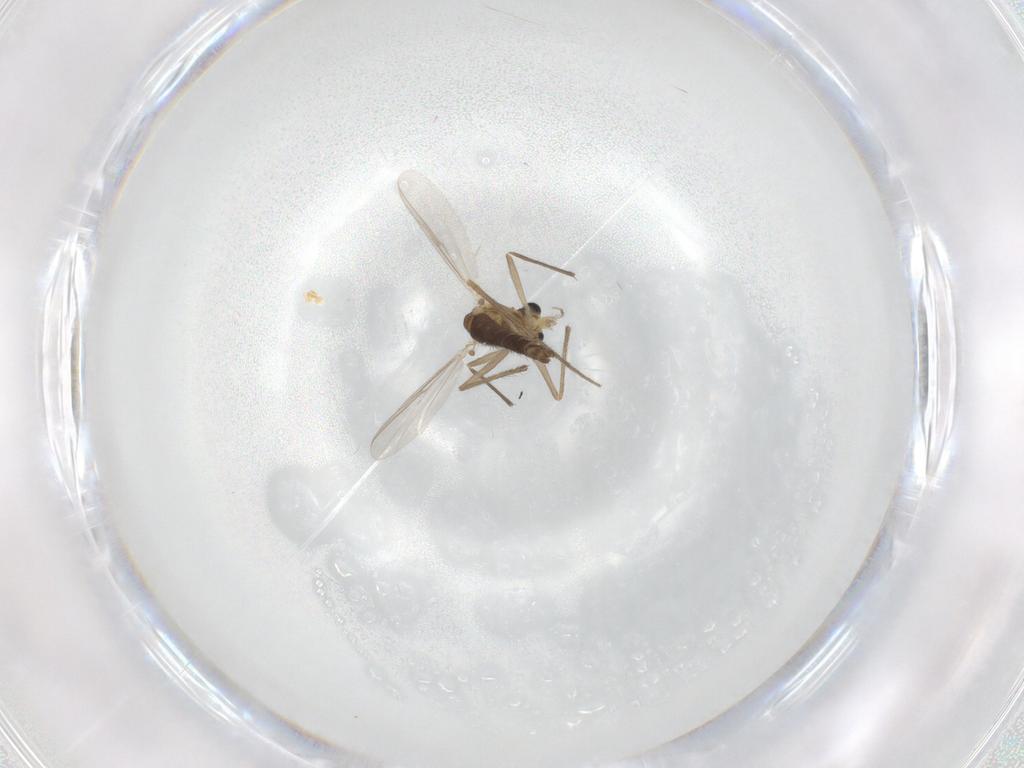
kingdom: Animalia
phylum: Arthropoda
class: Insecta
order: Diptera
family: Chironomidae
